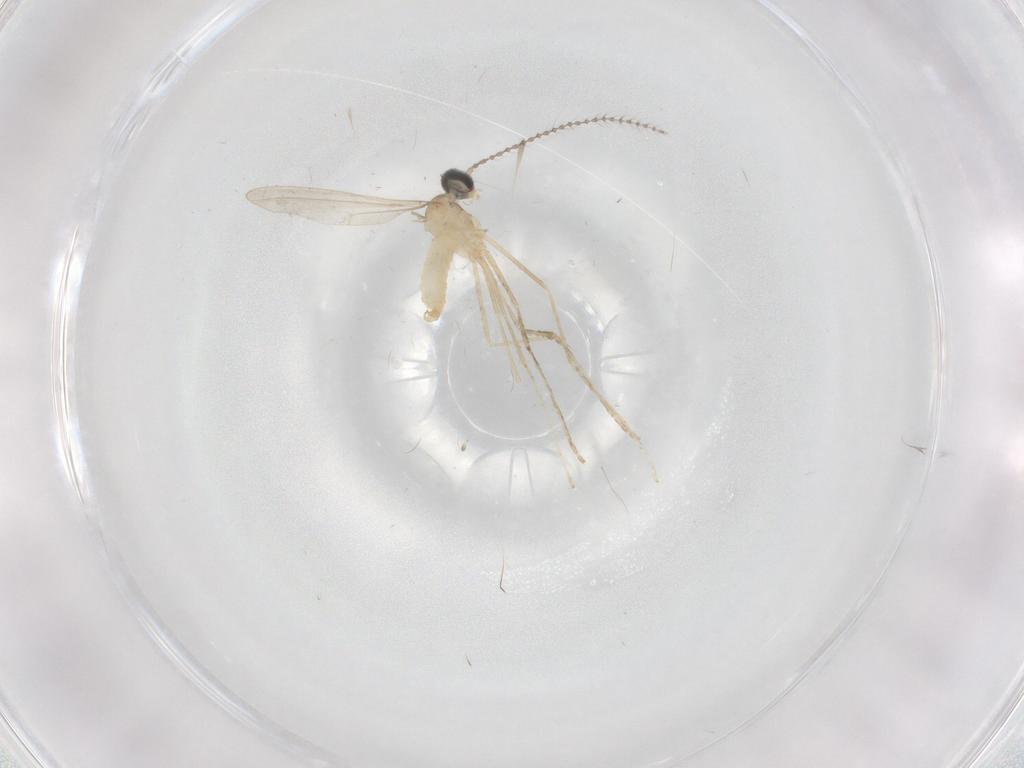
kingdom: Animalia
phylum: Arthropoda
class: Insecta
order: Diptera
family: Cecidomyiidae
